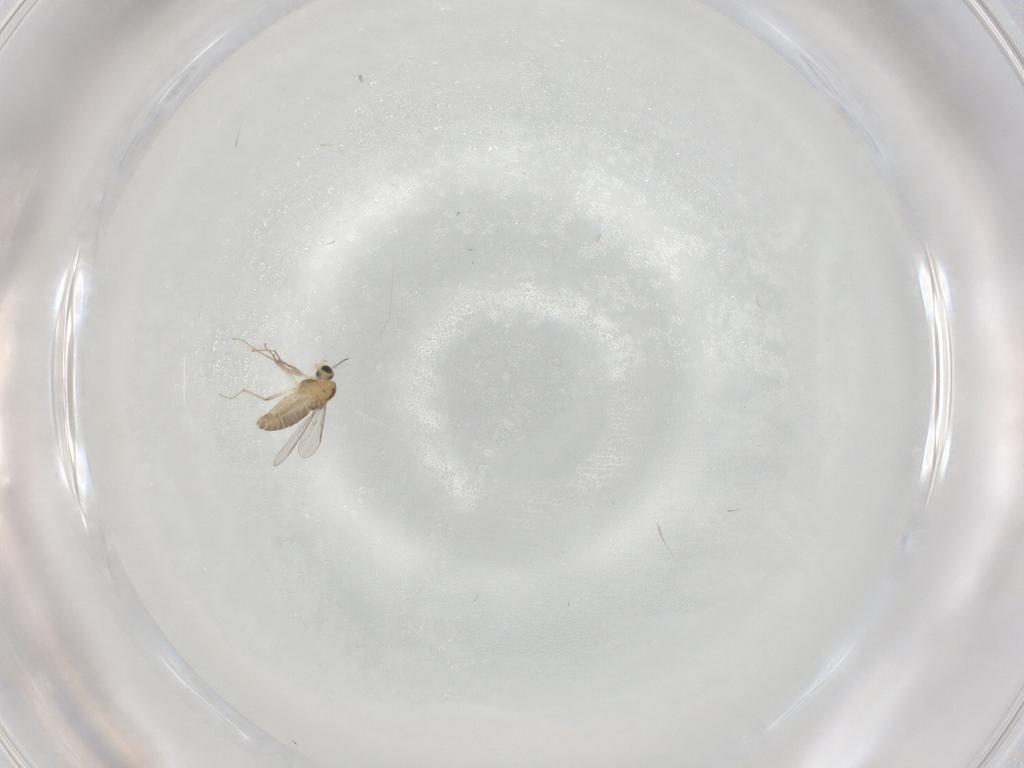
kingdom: Animalia
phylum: Arthropoda
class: Insecta
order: Diptera
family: Chironomidae
